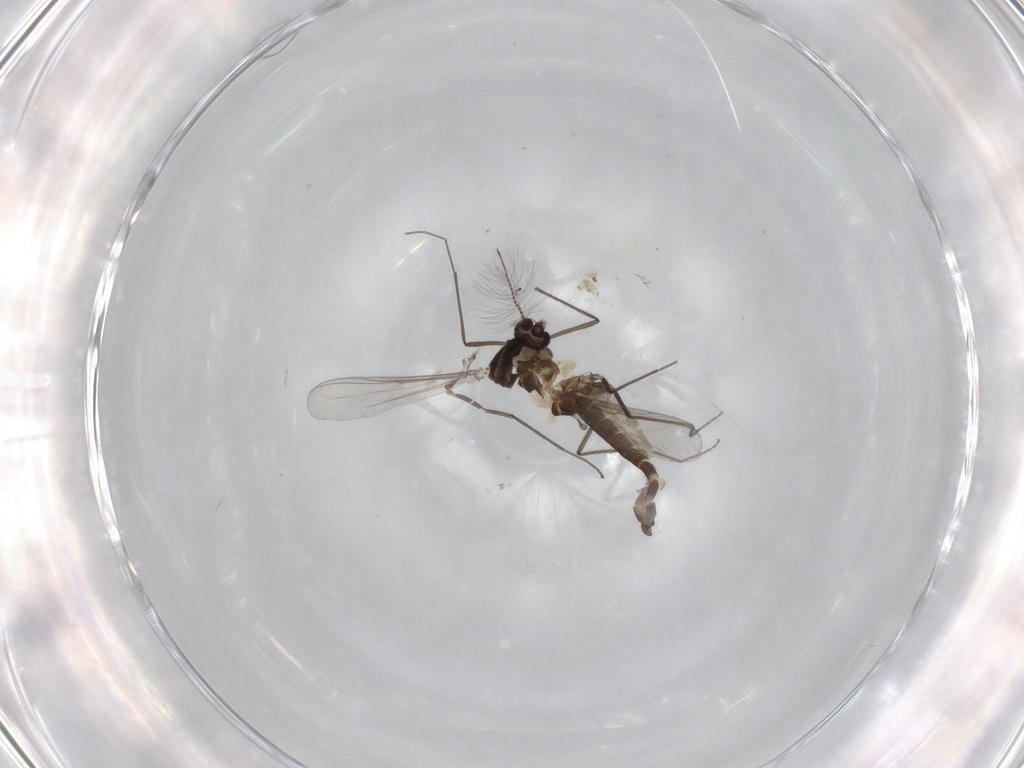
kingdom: Animalia
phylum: Arthropoda
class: Insecta
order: Diptera
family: Chironomidae
